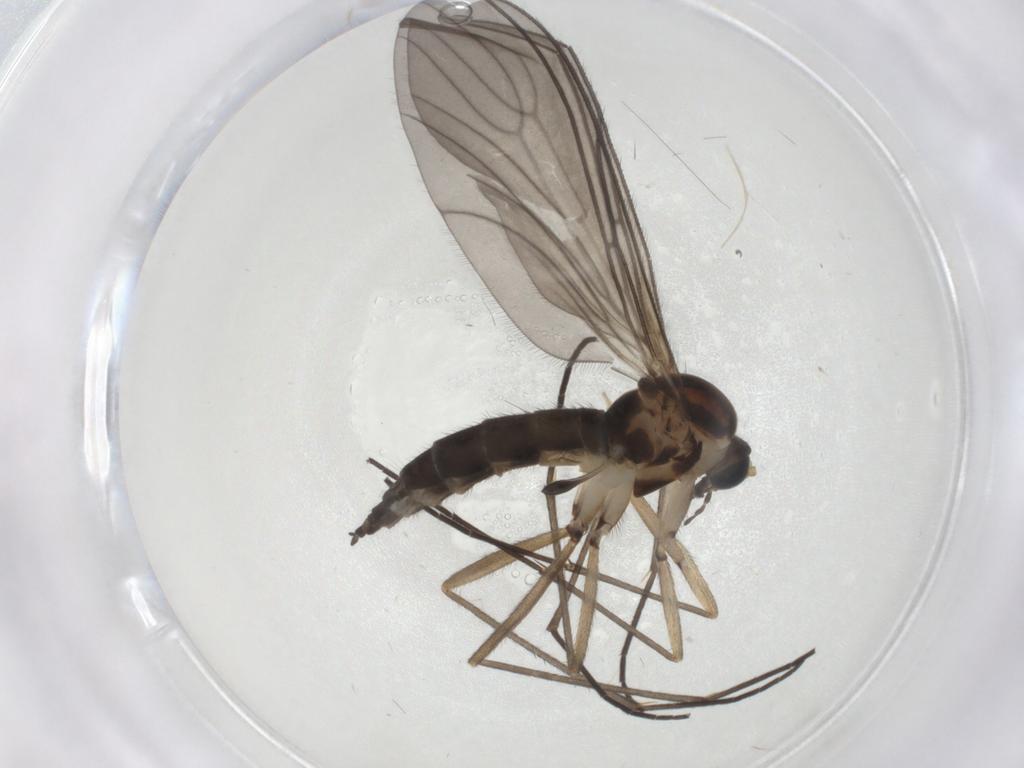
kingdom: Animalia
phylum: Arthropoda
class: Insecta
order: Diptera
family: Sciaridae
